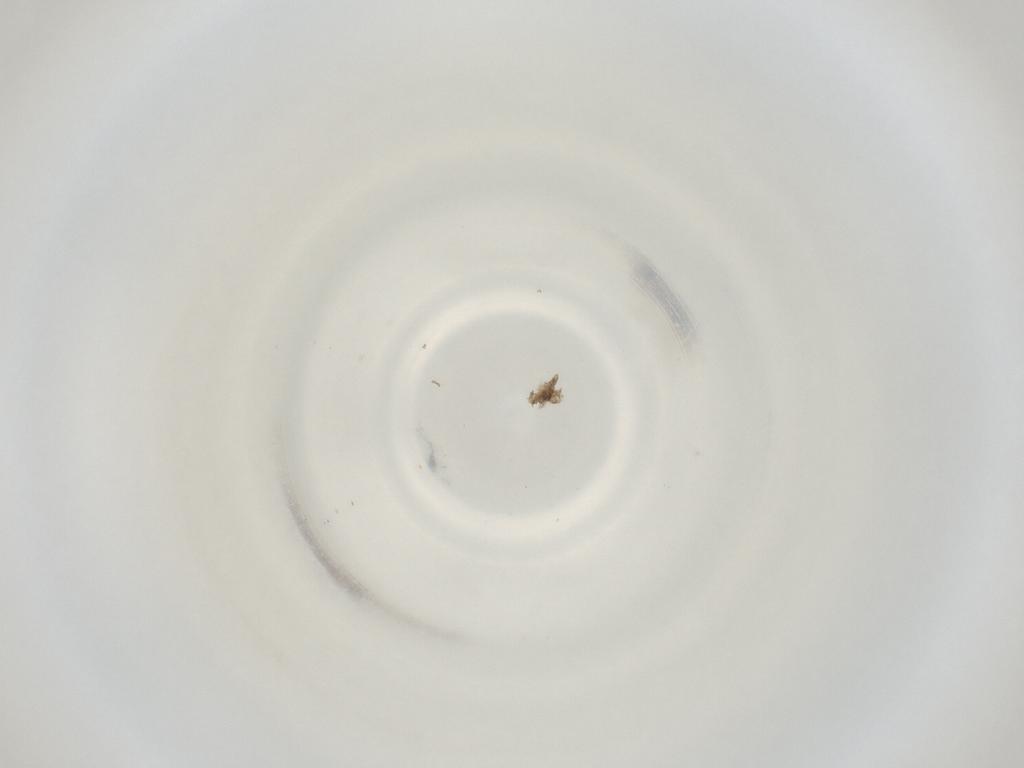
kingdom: Animalia
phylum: Arthropoda
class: Insecta
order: Diptera
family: Cecidomyiidae
